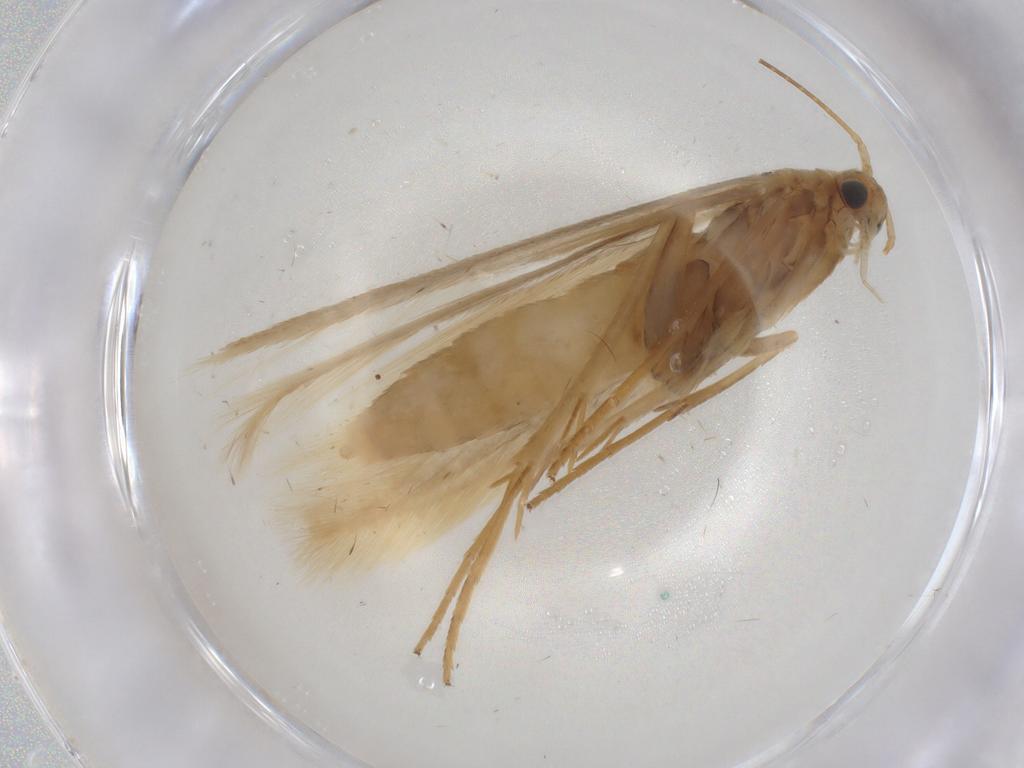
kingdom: Animalia
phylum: Arthropoda
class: Insecta
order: Lepidoptera
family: Coleophoridae
